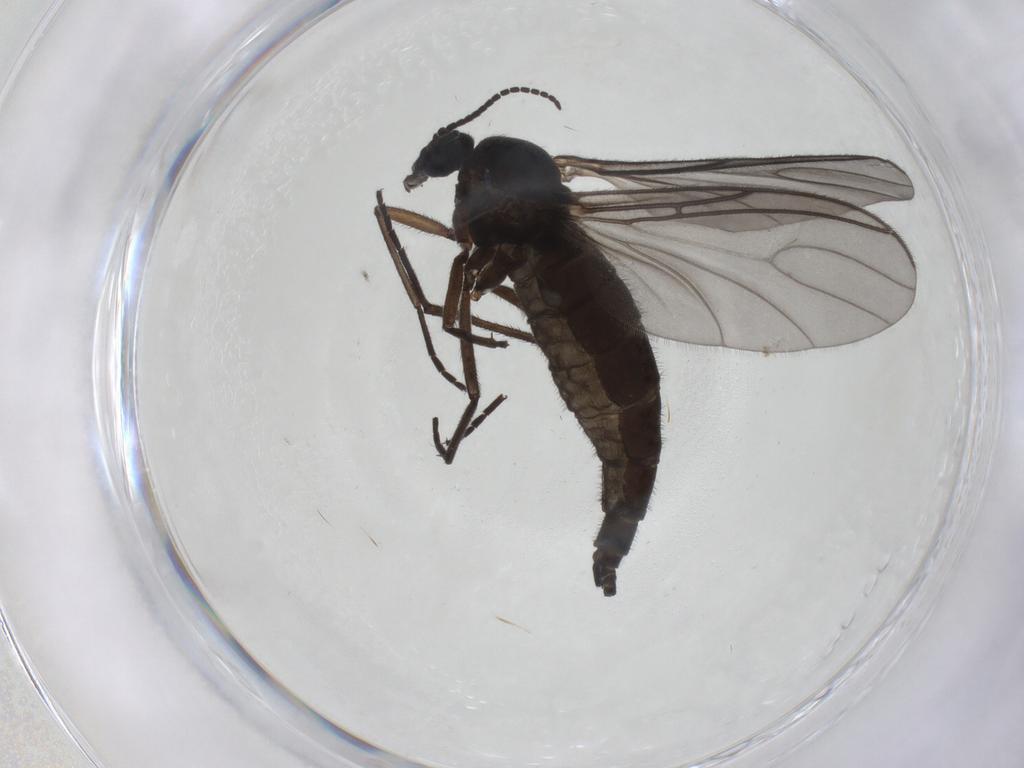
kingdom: Animalia
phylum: Arthropoda
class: Insecta
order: Diptera
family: Sciaridae
